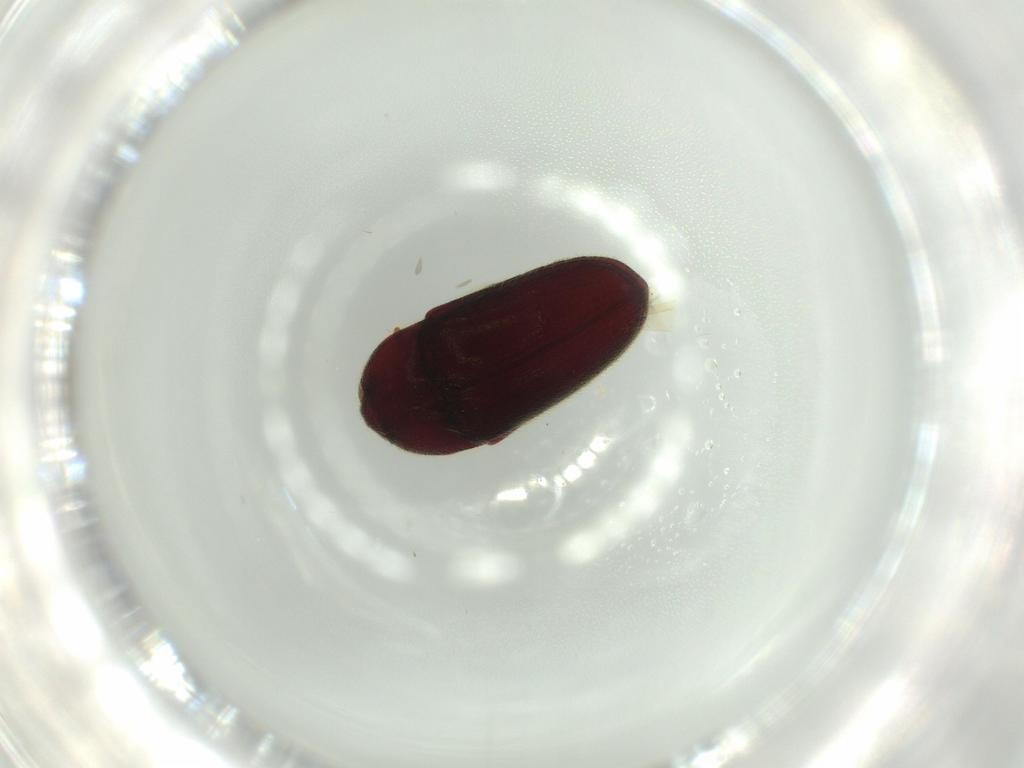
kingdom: Animalia
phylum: Arthropoda
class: Insecta
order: Coleoptera
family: Throscidae
